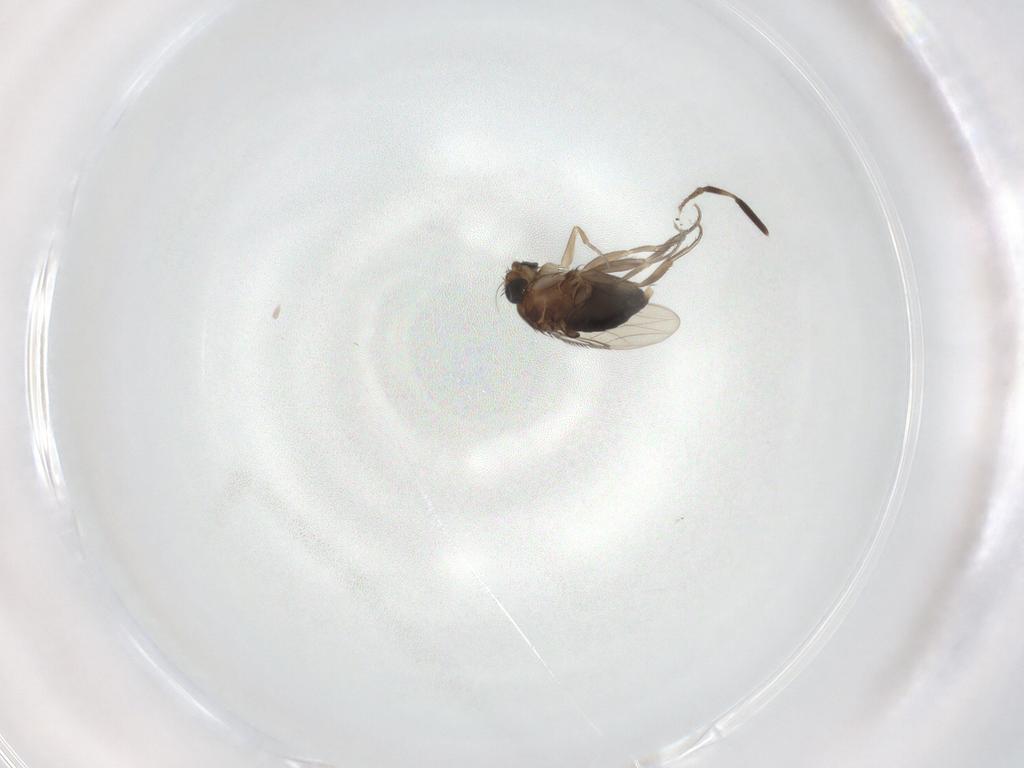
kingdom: Animalia
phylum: Arthropoda
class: Insecta
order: Diptera
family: Phoridae
